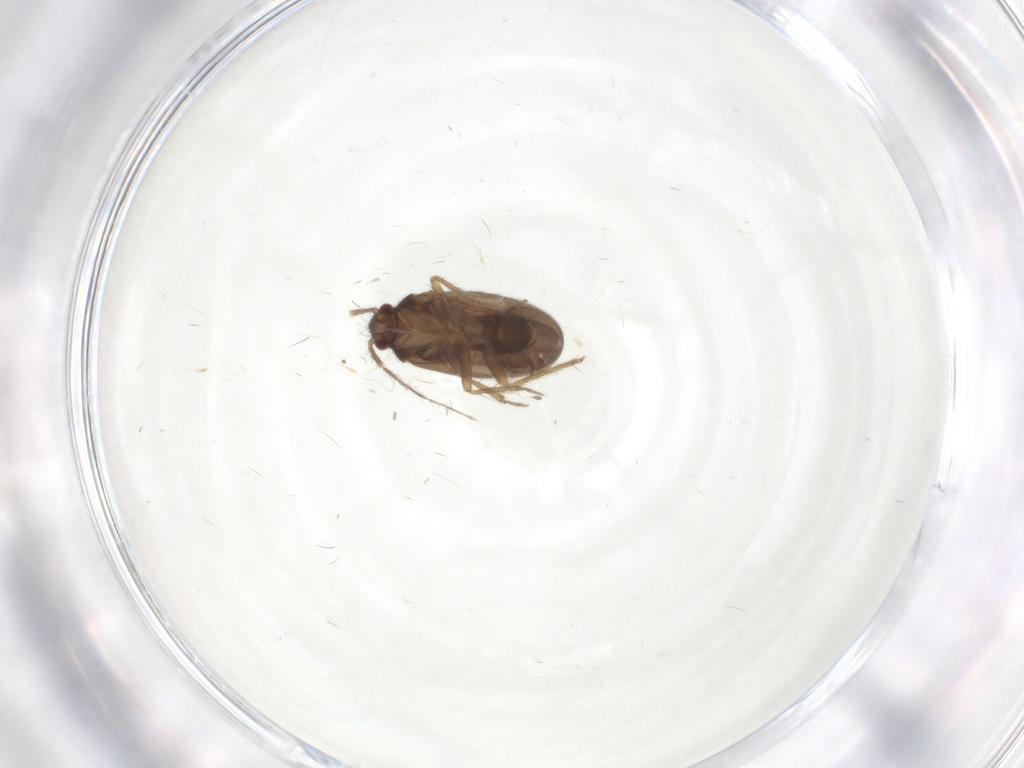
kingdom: Animalia
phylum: Arthropoda
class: Insecta
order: Hemiptera
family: Ceratocombidae
